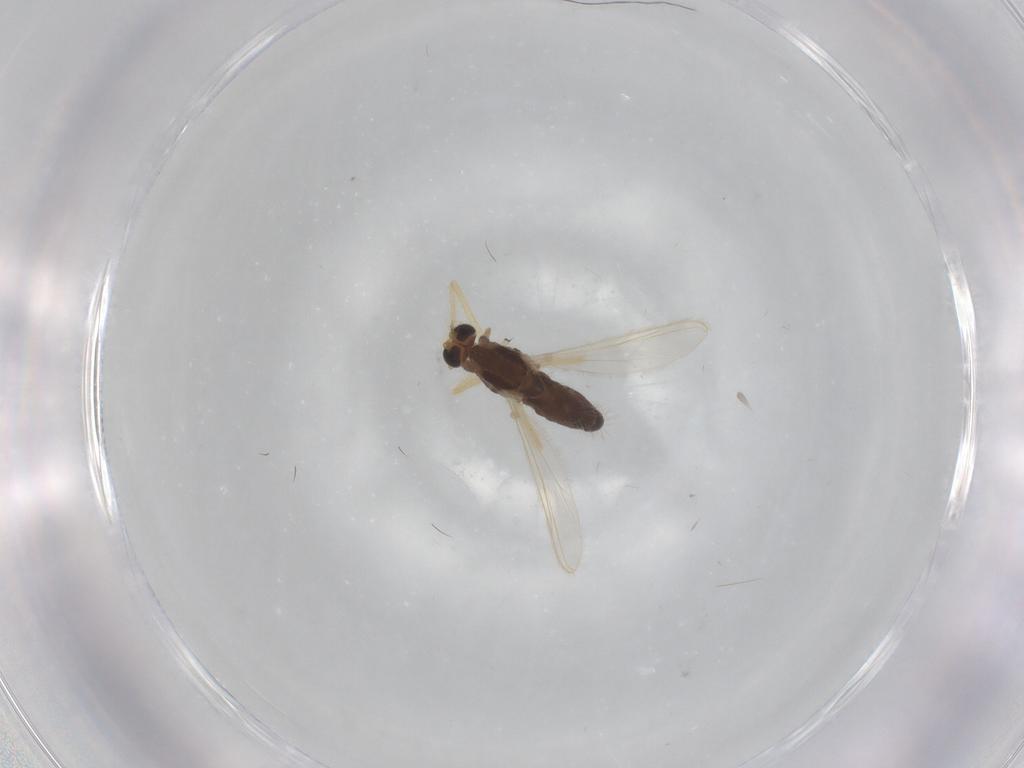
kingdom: Animalia
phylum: Arthropoda
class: Insecta
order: Diptera
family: Chironomidae
